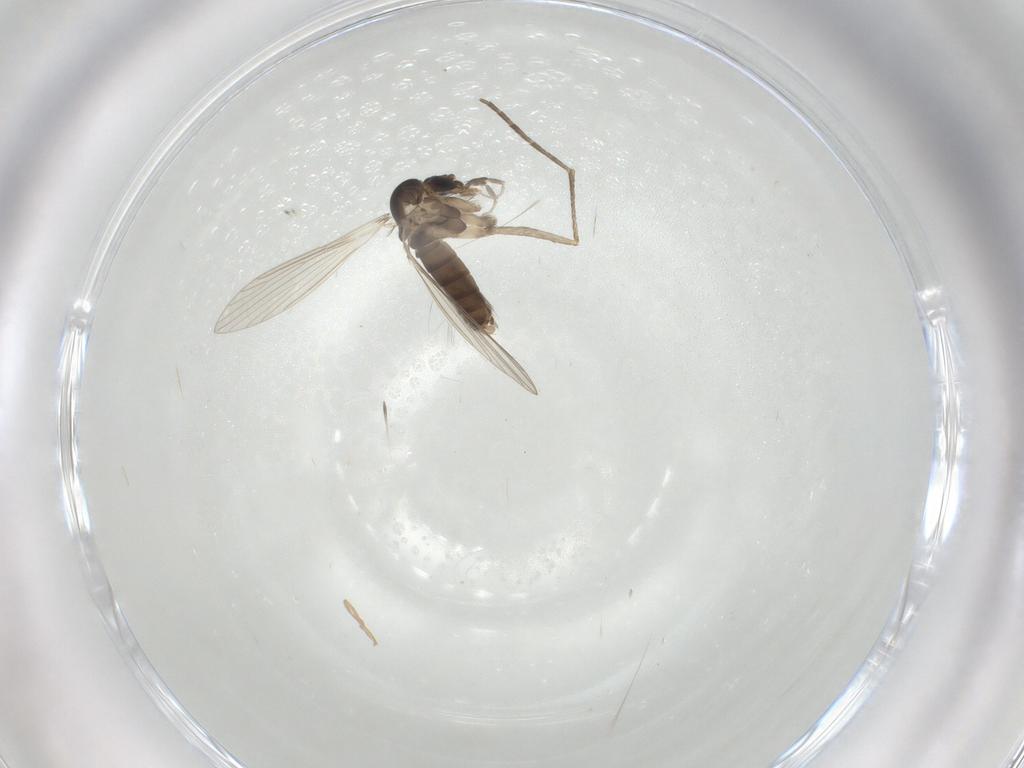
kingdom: Animalia
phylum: Arthropoda
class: Insecta
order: Diptera
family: Psychodidae
